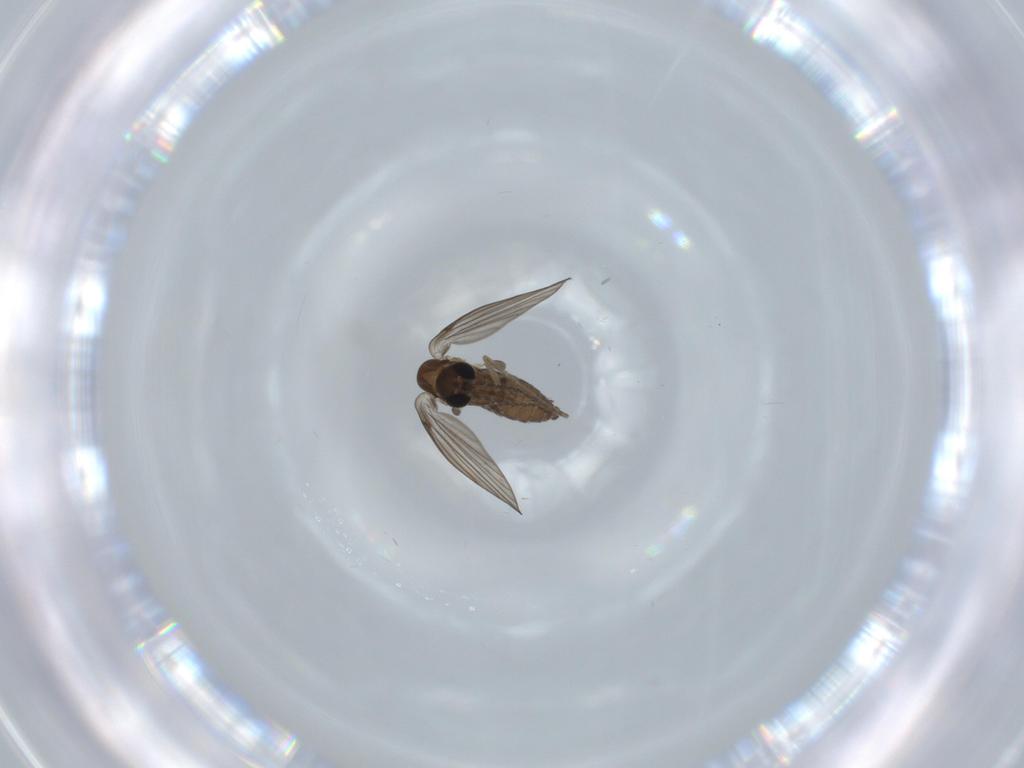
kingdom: Animalia
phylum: Arthropoda
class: Insecta
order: Diptera
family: Psychodidae
